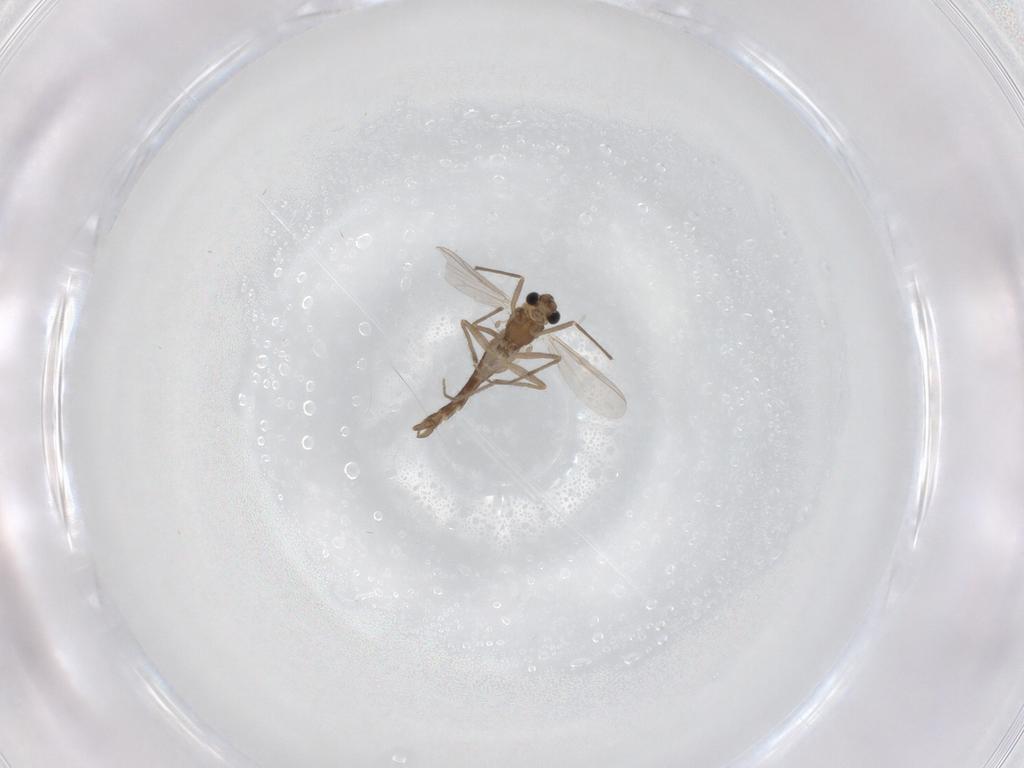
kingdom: Animalia
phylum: Arthropoda
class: Insecta
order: Diptera
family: Chironomidae
